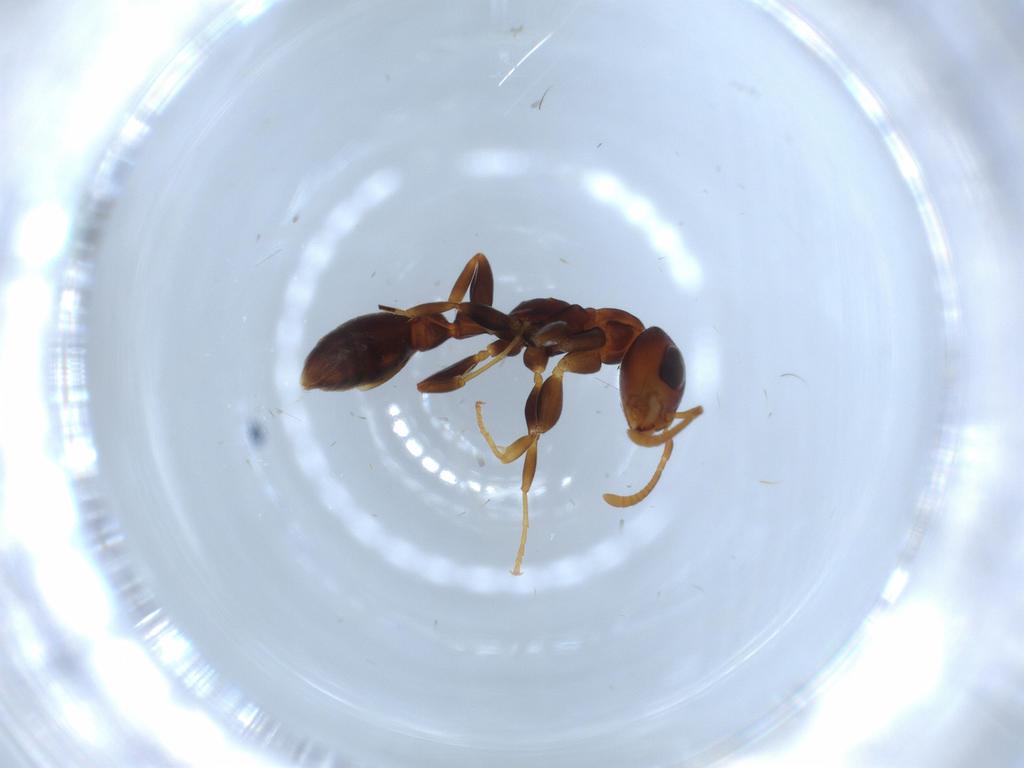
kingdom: Animalia
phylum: Arthropoda
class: Insecta
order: Hymenoptera
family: Formicidae
